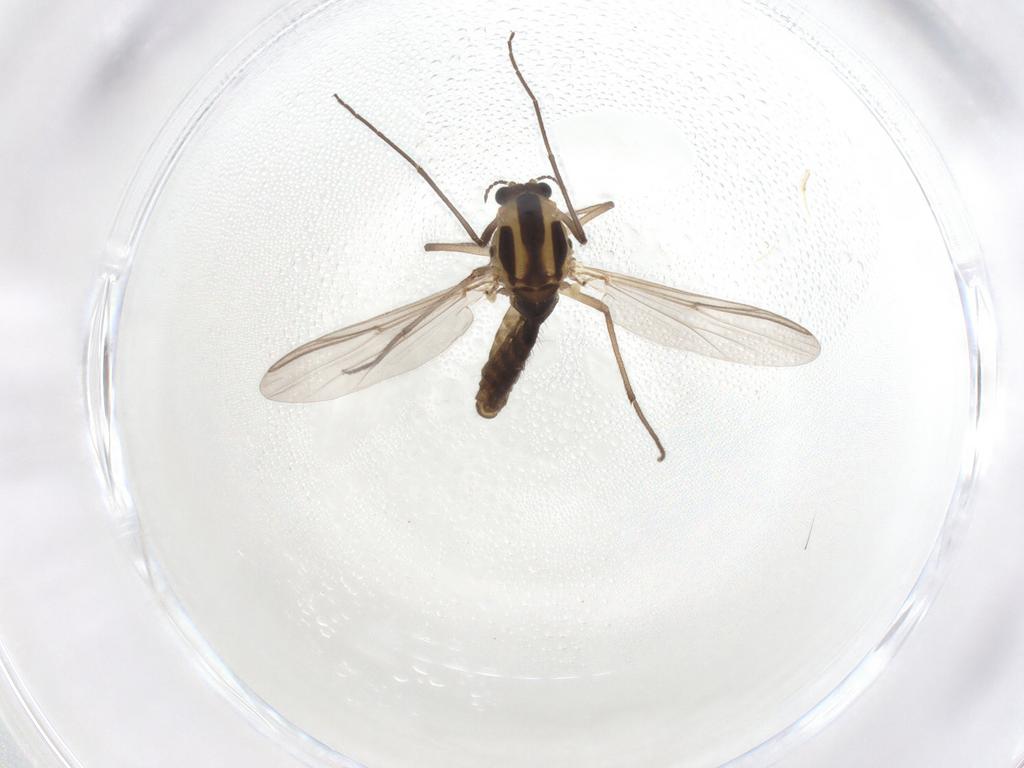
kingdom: Animalia
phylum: Arthropoda
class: Insecta
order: Diptera
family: Chironomidae
